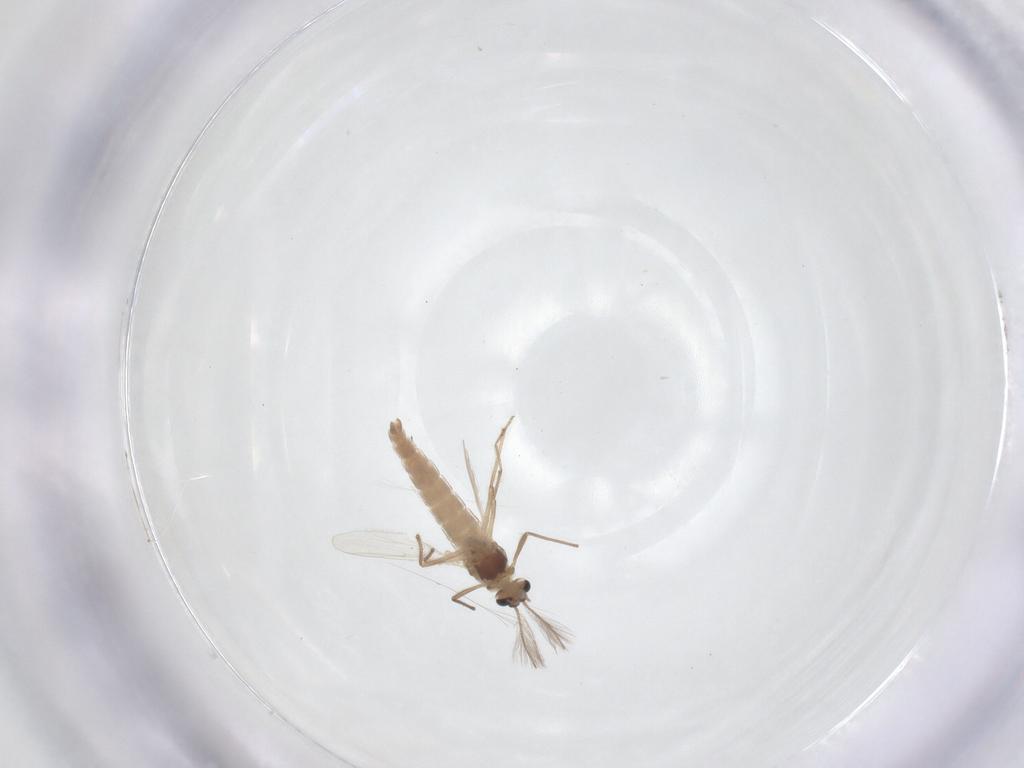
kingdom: Animalia
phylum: Arthropoda
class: Insecta
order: Diptera
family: Chironomidae
